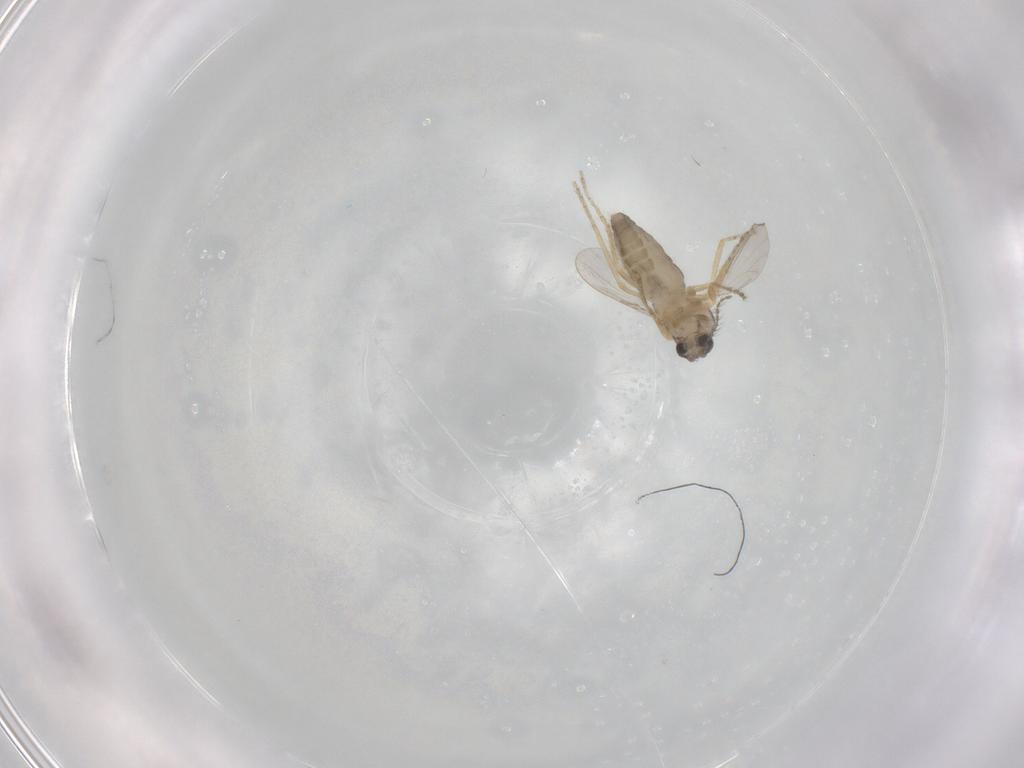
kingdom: Animalia
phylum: Arthropoda
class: Insecta
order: Diptera
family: Ceratopogonidae
